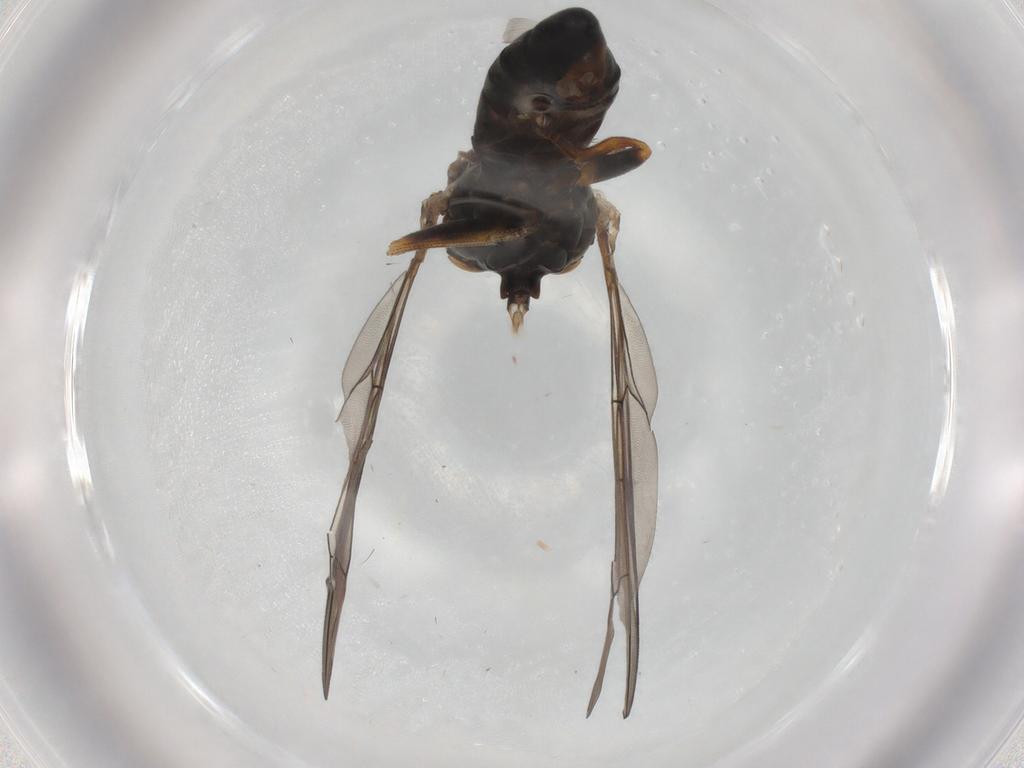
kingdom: Animalia
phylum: Arthropoda
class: Insecta
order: Diptera
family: Pipunculidae
